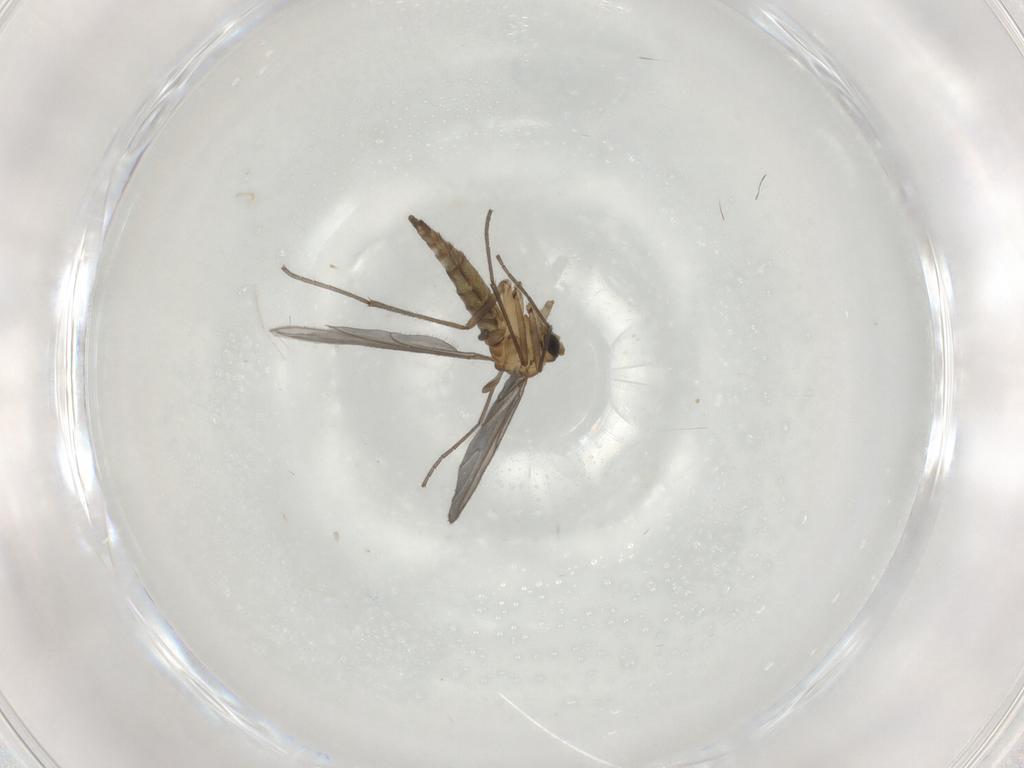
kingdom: Animalia
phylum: Arthropoda
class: Insecta
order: Diptera
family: Sciaridae
